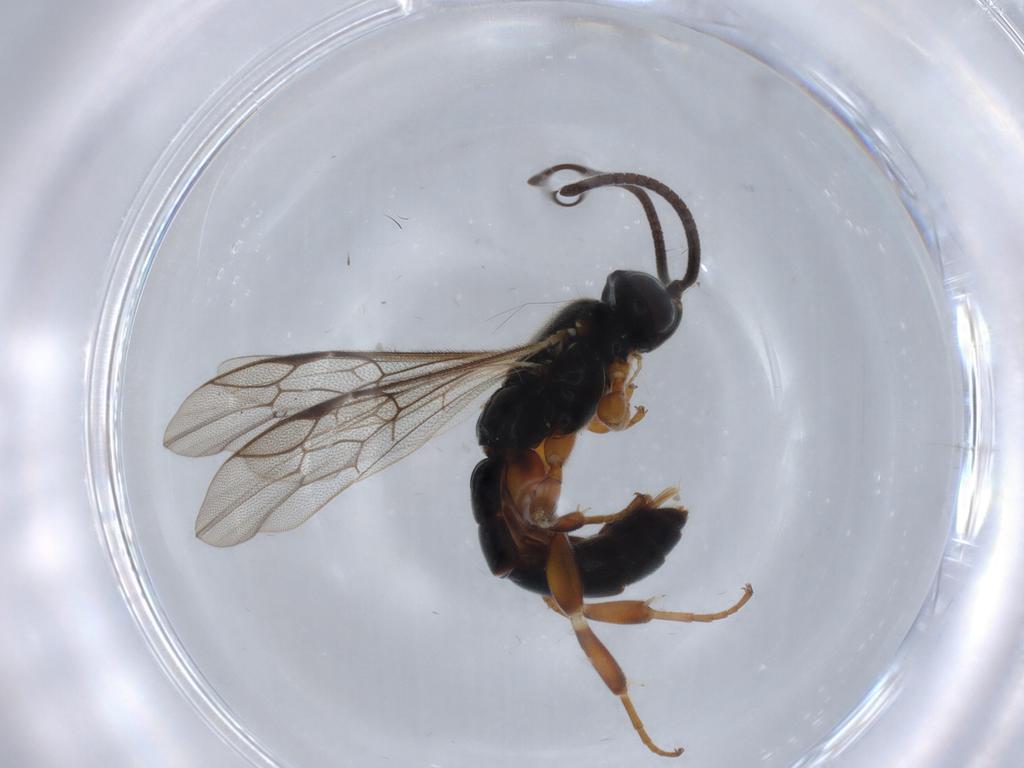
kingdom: Animalia
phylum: Arthropoda
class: Insecta
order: Hymenoptera
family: Ichneumonidae
